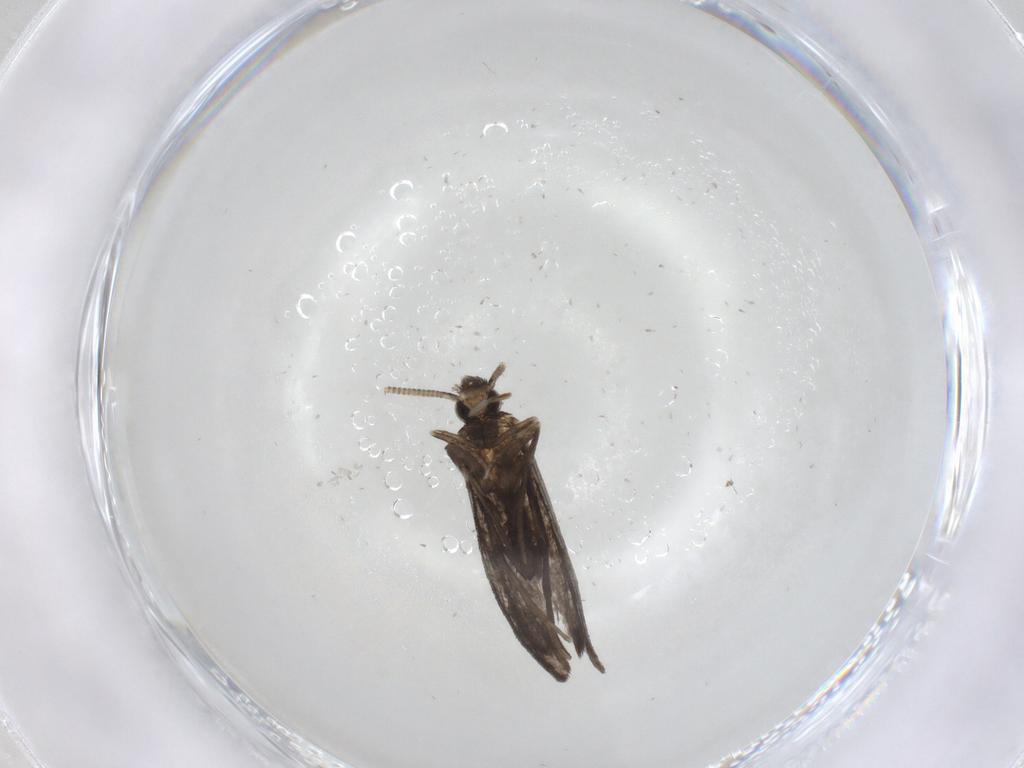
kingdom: Animalia
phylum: Arthropoda
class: Insecta
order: Lepidoptera
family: Nymphalidae
